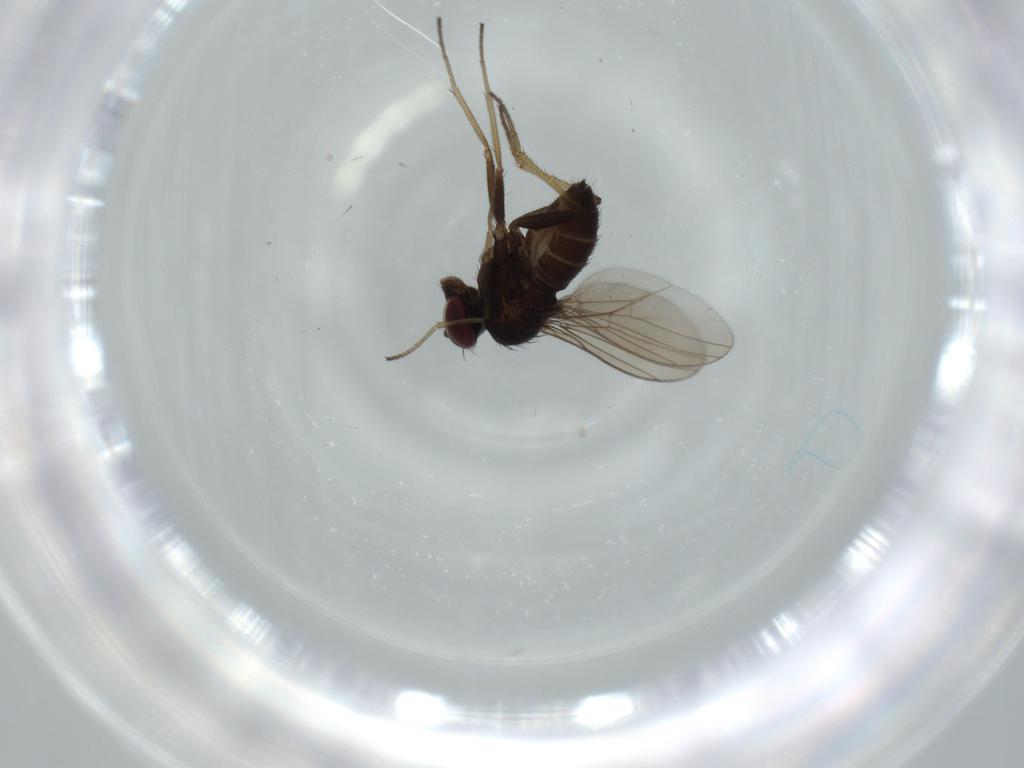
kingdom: Animalia
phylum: Arthropoda
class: Insecta
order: Diptera
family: Dolichopodidae
